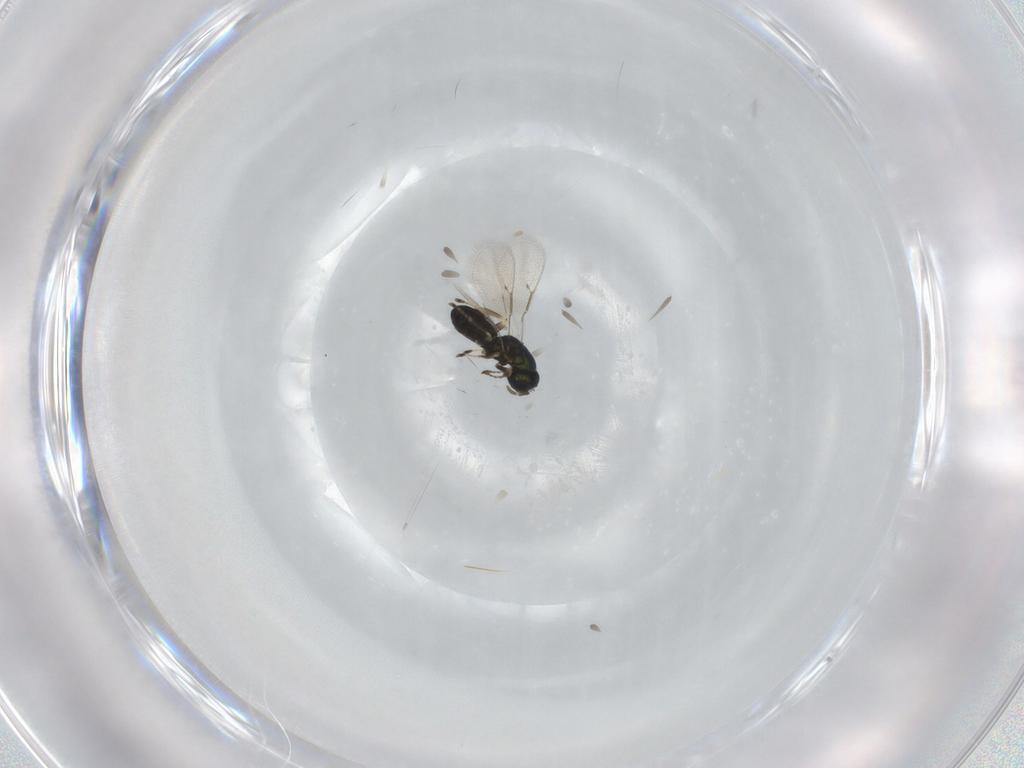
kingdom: Animalia
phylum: Arthropoda
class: Insecta
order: Hymenoptera
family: Eulophidae
